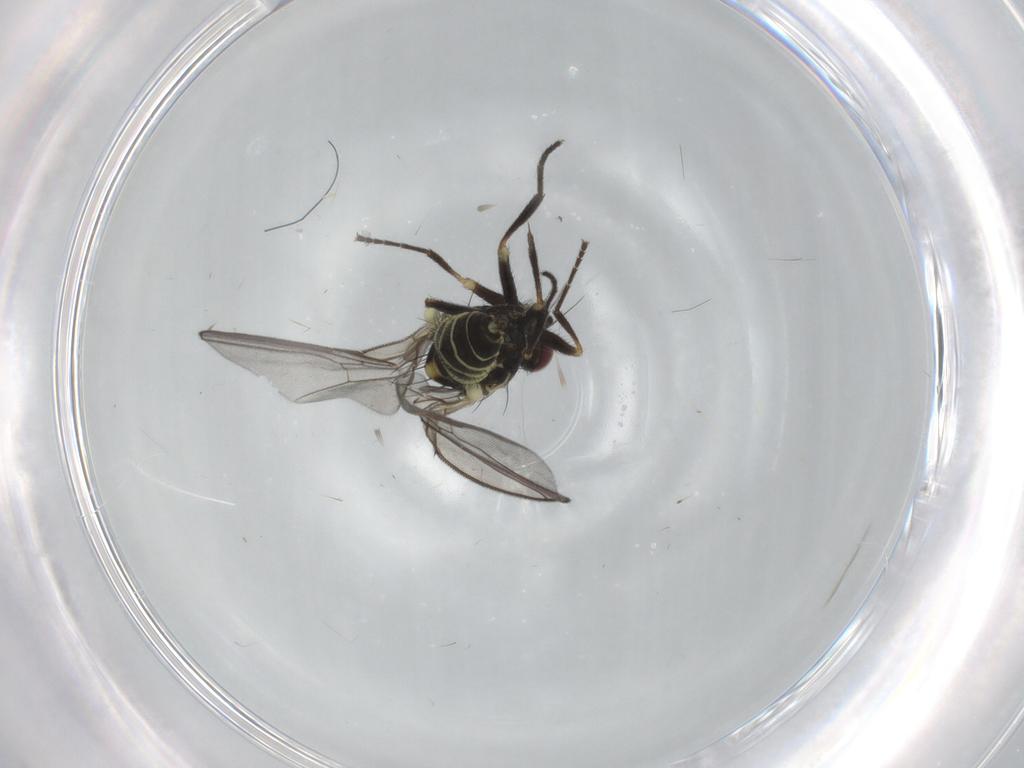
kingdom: Animalia
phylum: Arthropoda
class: Insecta
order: Diptera
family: Agromyzidae
